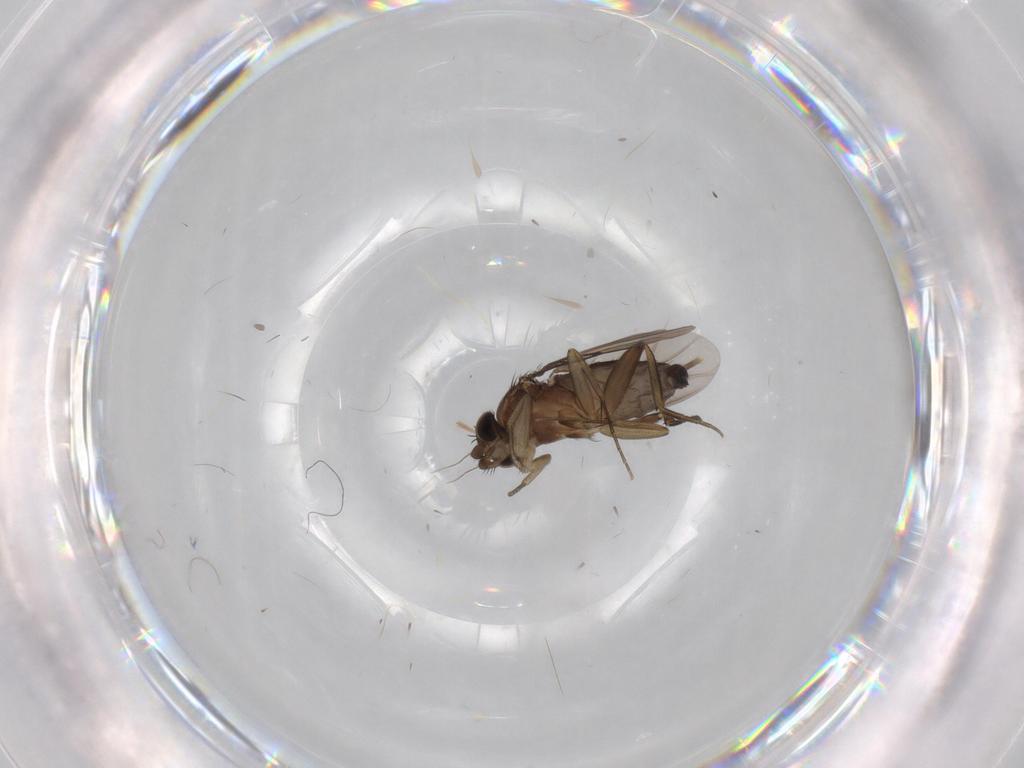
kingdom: Animalia
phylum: Arthropoda
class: Insecta
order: Diptera
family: Phoridae
